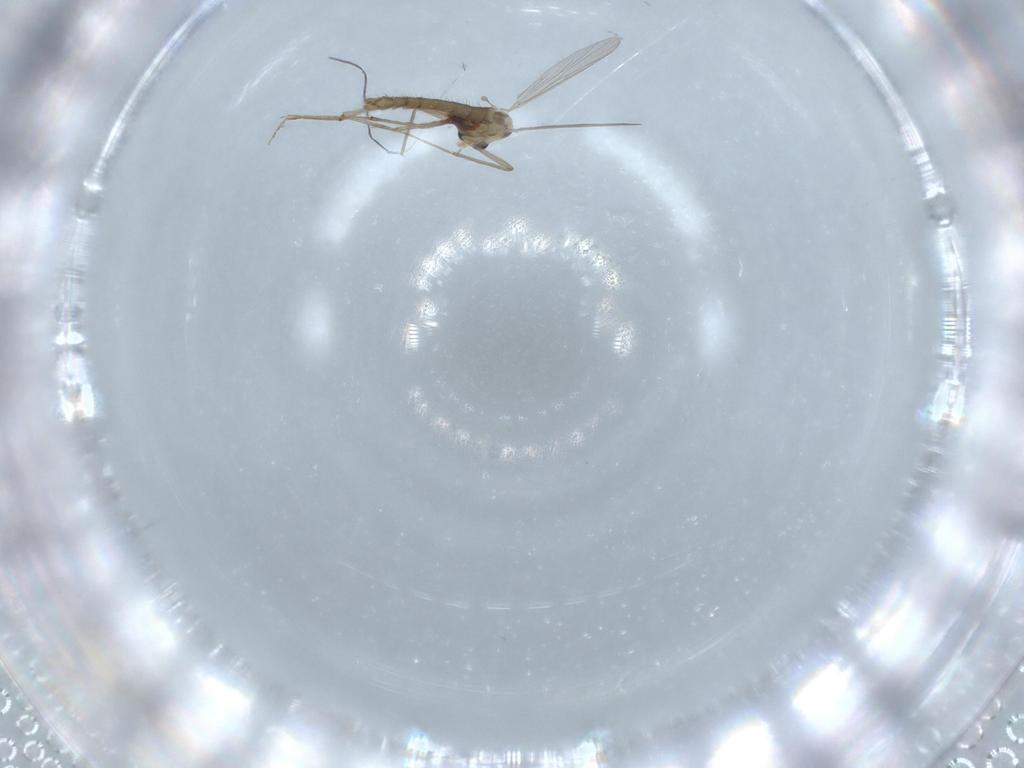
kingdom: Animalia
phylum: Arthropoda
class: Insecta
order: Diptera
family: Chironomidae
